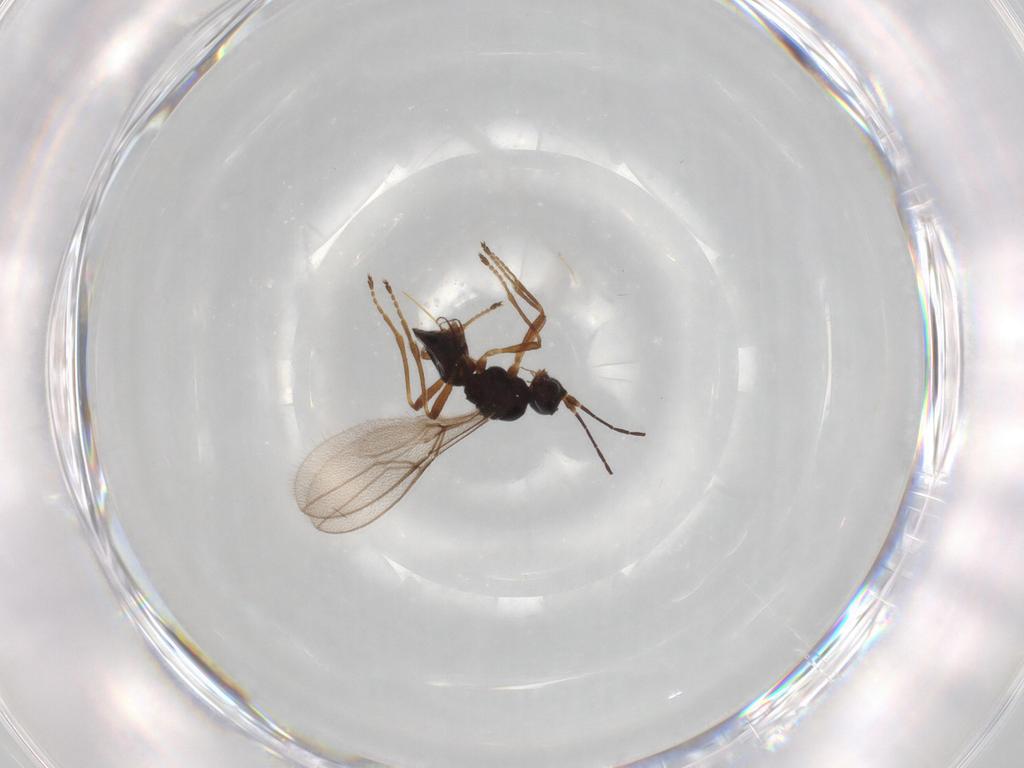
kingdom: Animalia
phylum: Arthropoda
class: Insecta
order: Hymenoptera
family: Braconidae
